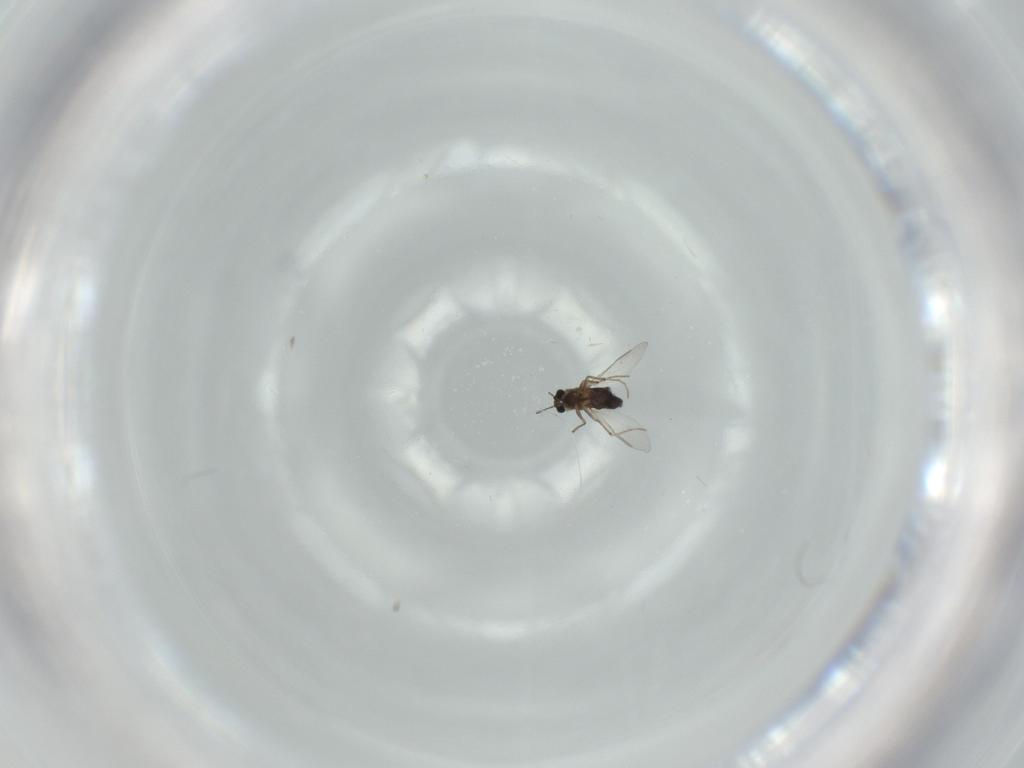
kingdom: Animalia
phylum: Arthropoda
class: Insecta
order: Diptera
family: Chironomidae
